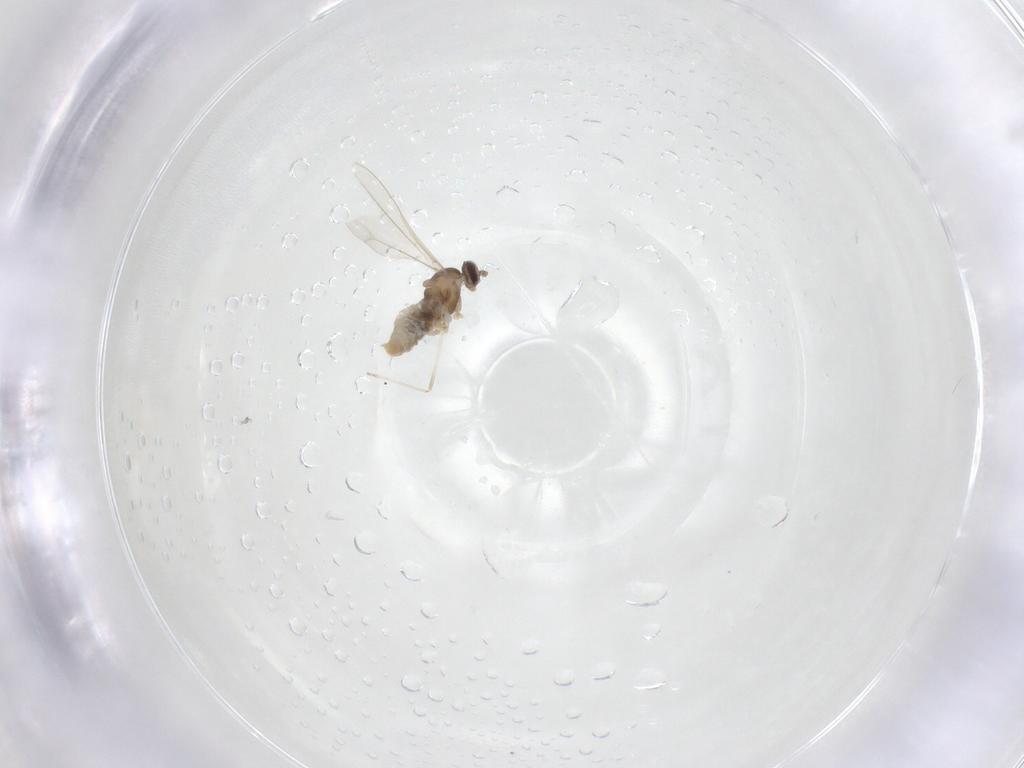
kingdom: Animalia
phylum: Arthropoda
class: Insecta
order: Diptera
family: Cecidomyiidae
